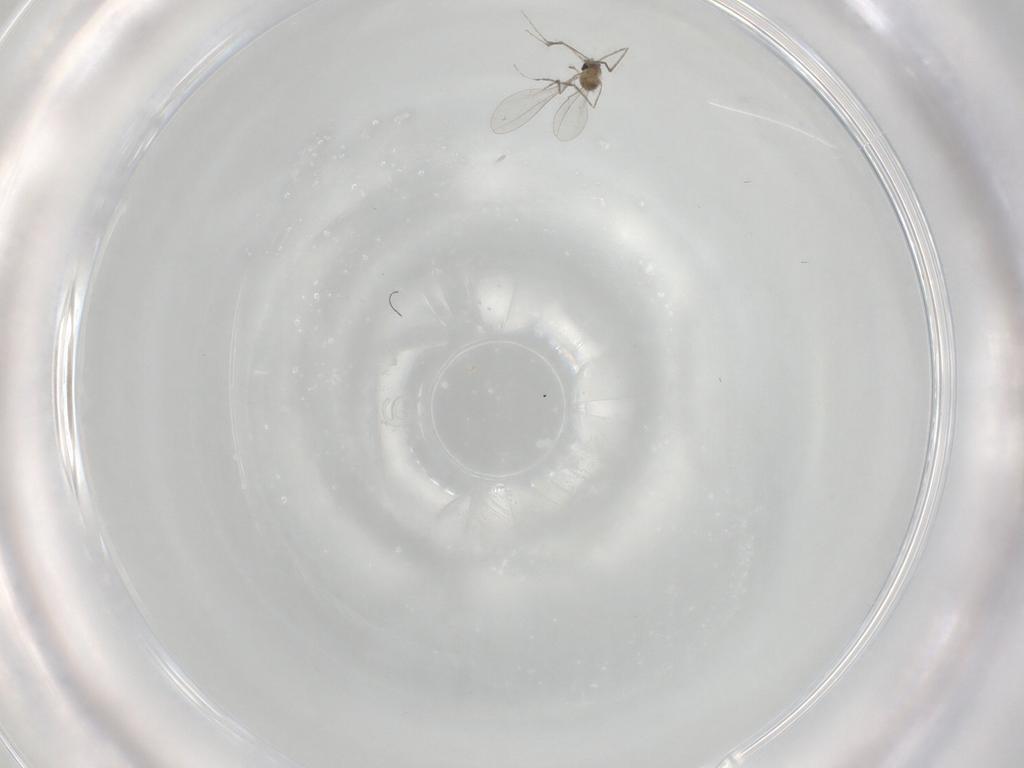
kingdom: Animalia
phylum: Arthropoda
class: Insecta
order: Diptera
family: Cecidomyiidae
